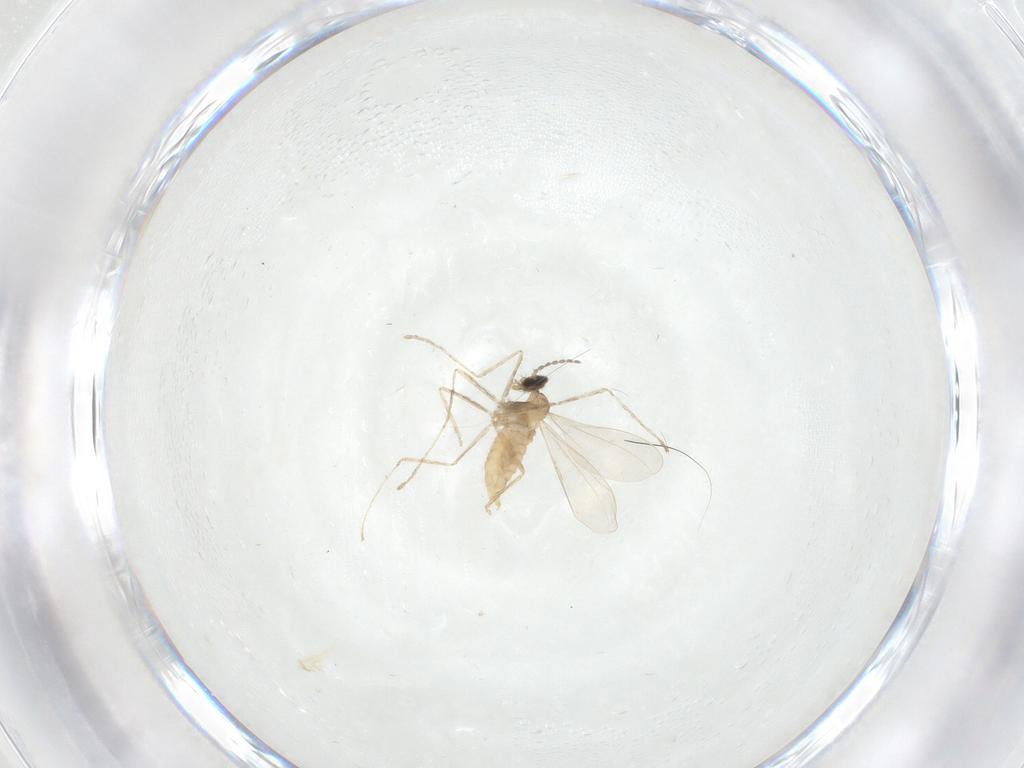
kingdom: Animalia
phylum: Arthropoda
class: Insecta
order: Diptera
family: Cecidomyiidae
